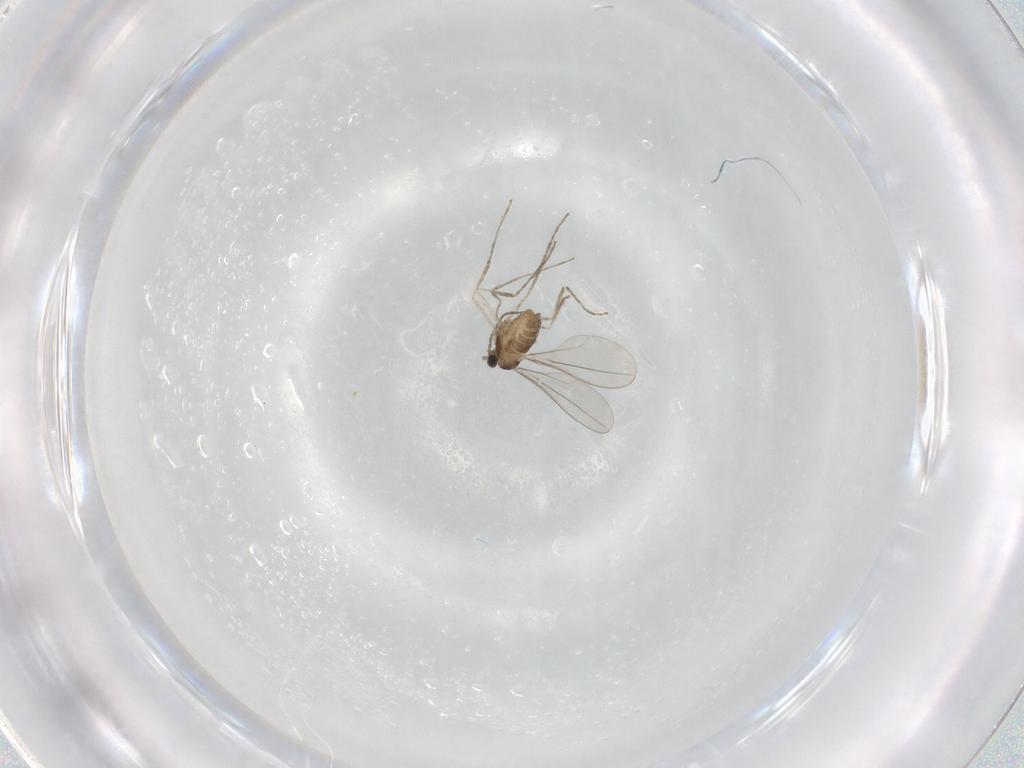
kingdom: Animalia
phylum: Arthropoda
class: Insecta
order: Diptera
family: Cecidomyiidae
